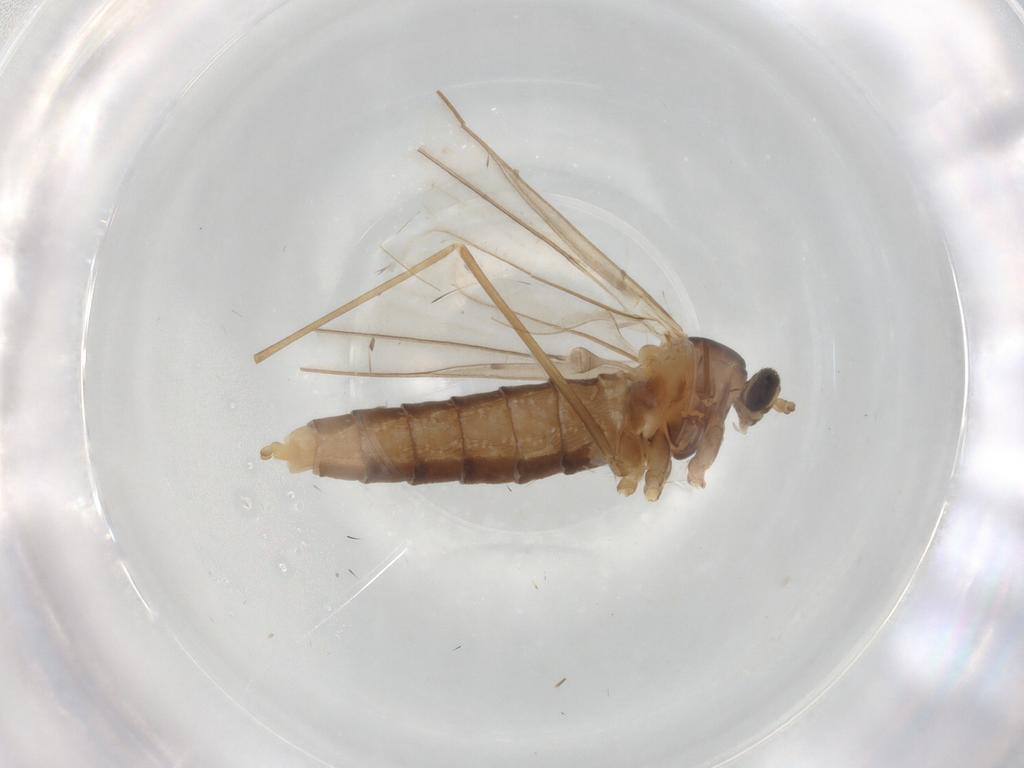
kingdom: Animalia
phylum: Arthropoda
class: Insecta
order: Diptera
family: Cecidomyiidae
